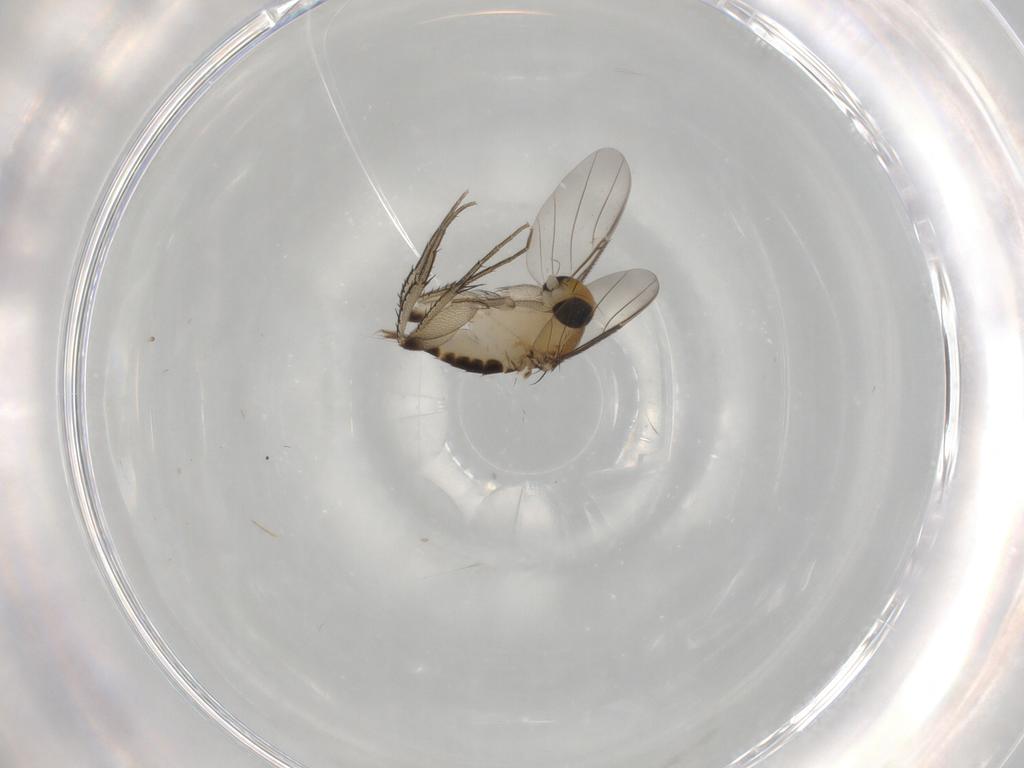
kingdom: Animalia
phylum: Arthropoda
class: Insecta
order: Diptera
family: Phoridae
